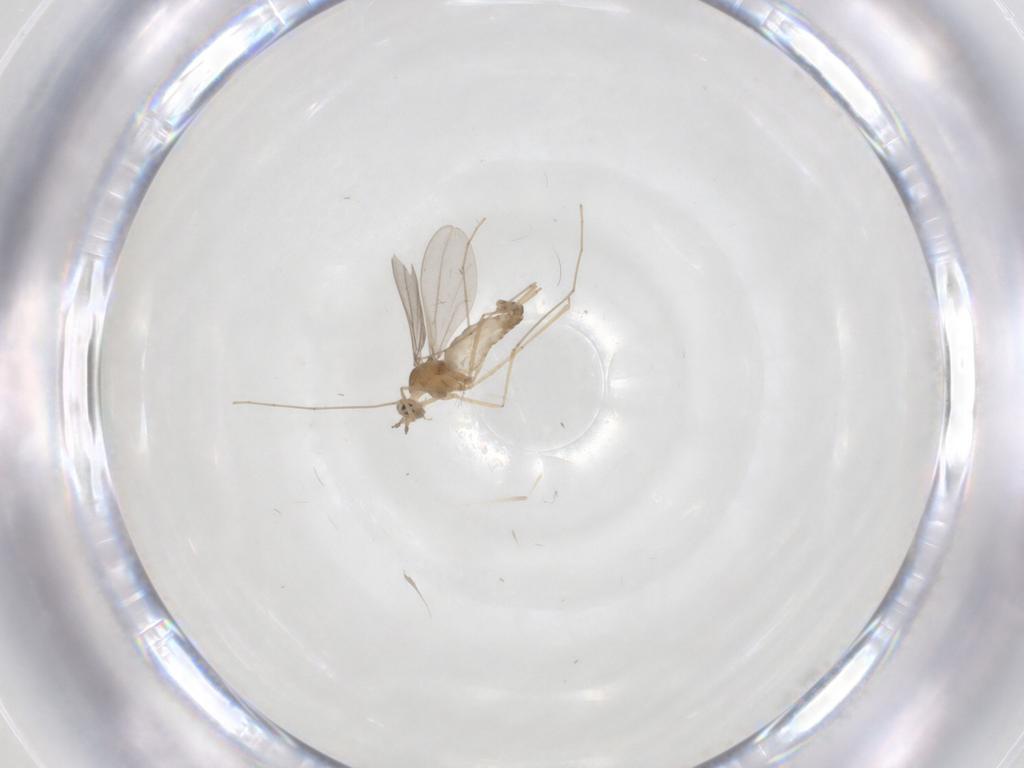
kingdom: Animalia
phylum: Arthropoda
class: Insecta
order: Diptera
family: Cecidomyiidae
